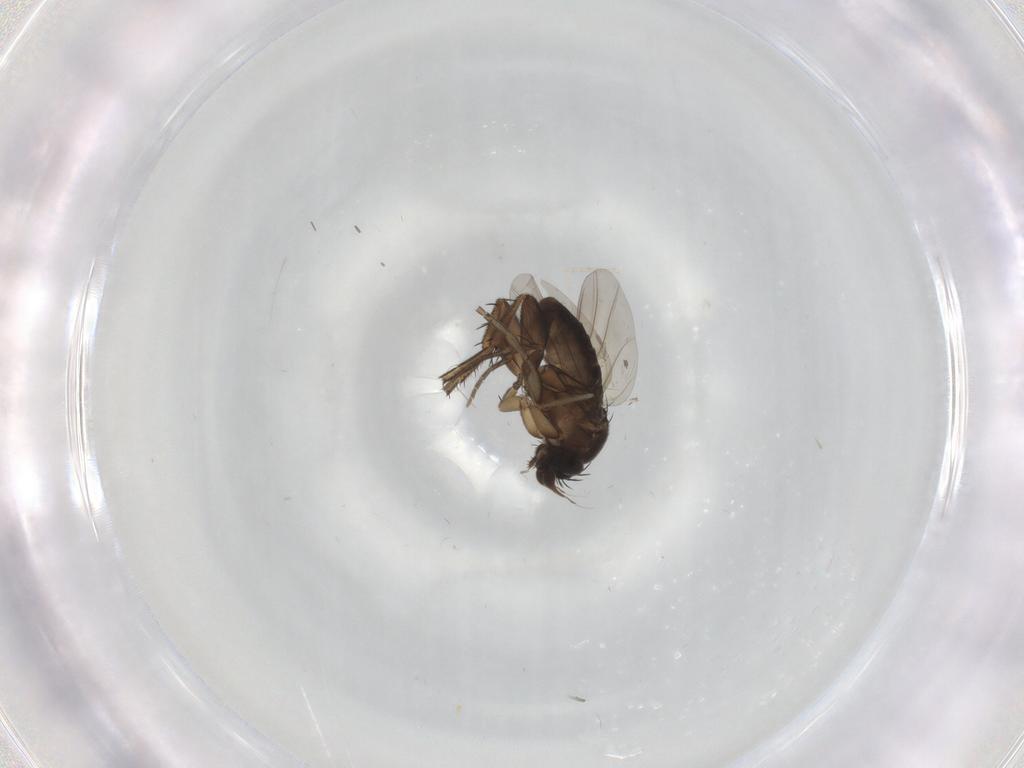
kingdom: Animalia
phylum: Arthropoda
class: Insecta
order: Diptera
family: Phoridae
